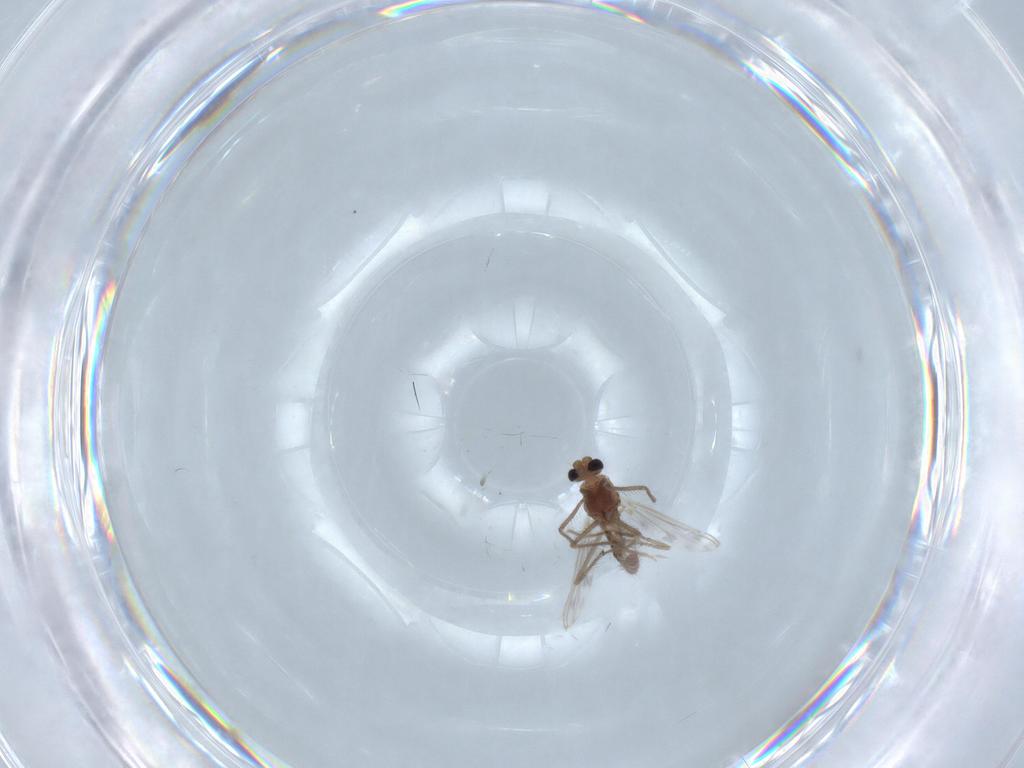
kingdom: Animalia
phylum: Arthropoda
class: Insecta
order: Diptera
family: Chironomidae
